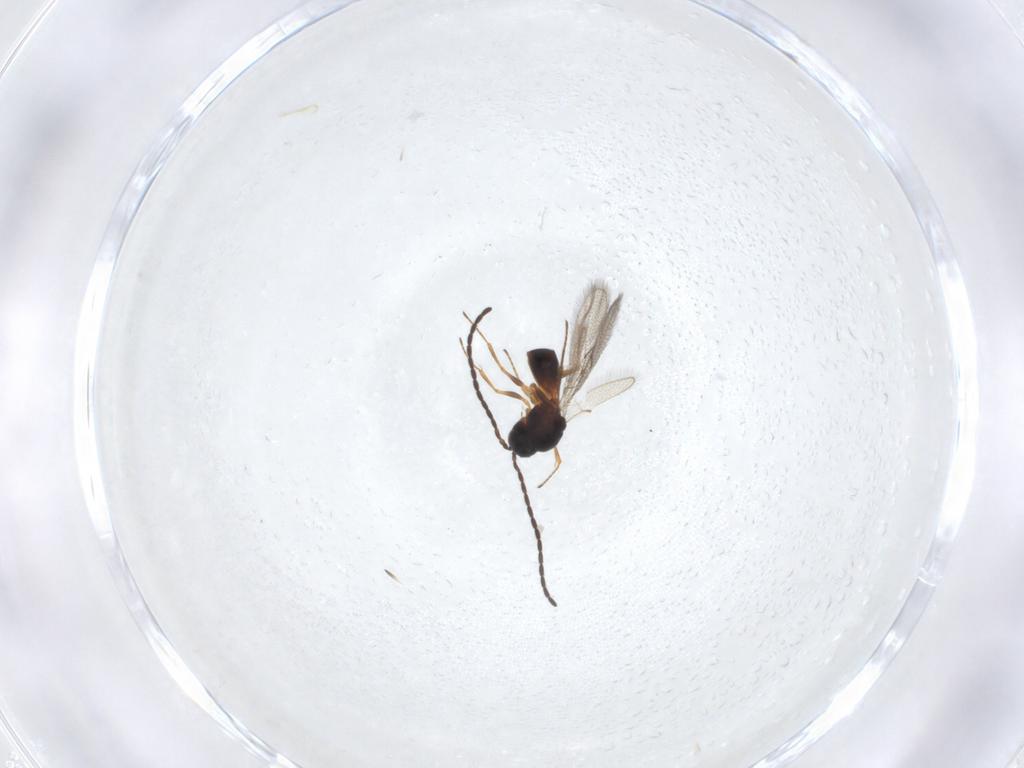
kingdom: Animalia
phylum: Arthropoda
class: Insecta
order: Hymenoptera
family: Figitidae
